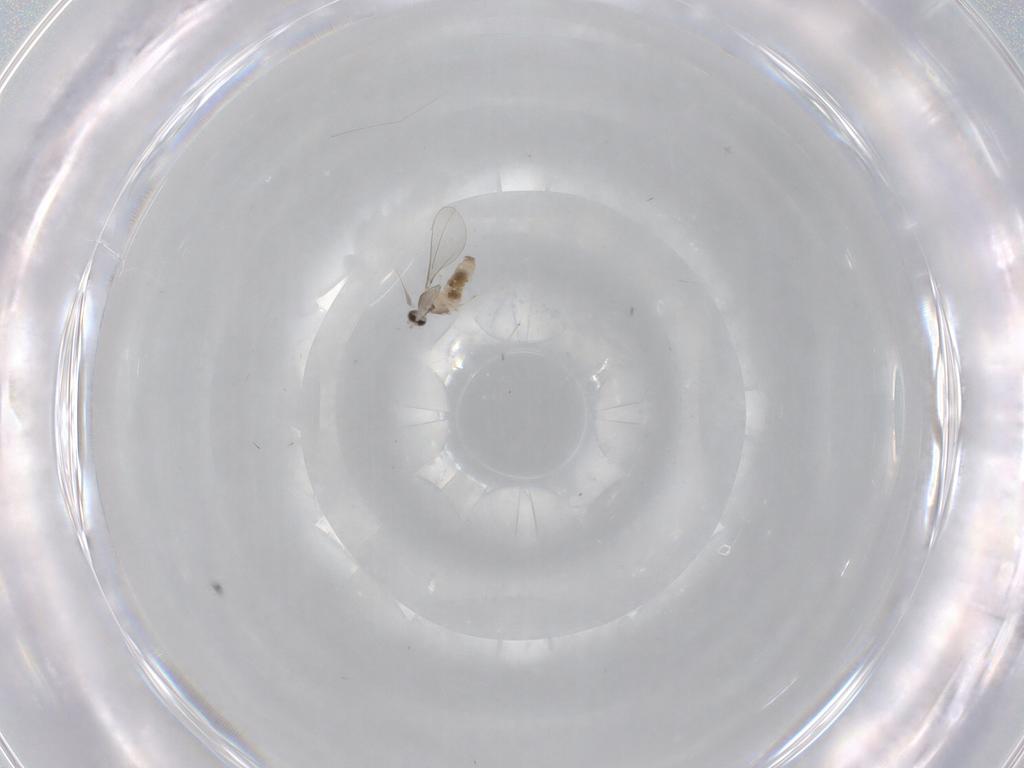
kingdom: Animalia
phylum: Arthropoda
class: Insecta
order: Diptera
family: Cecidomyiidae
